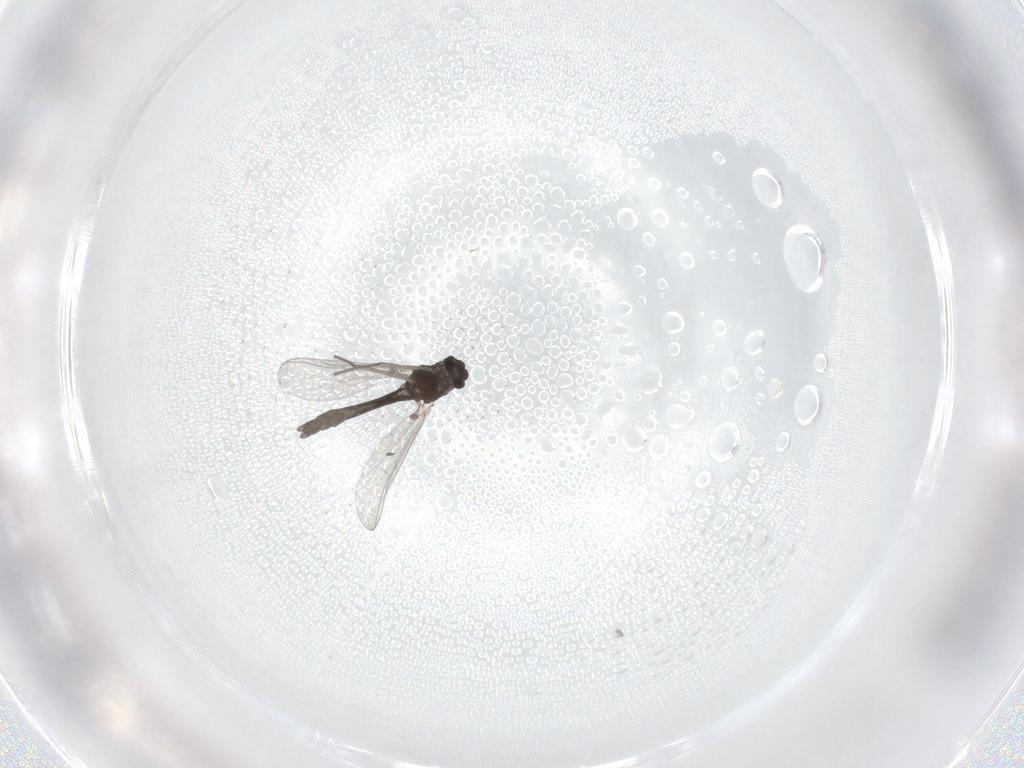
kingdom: Animalia
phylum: Arthropoda
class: Insecta
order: Diptera
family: Chironomidae
